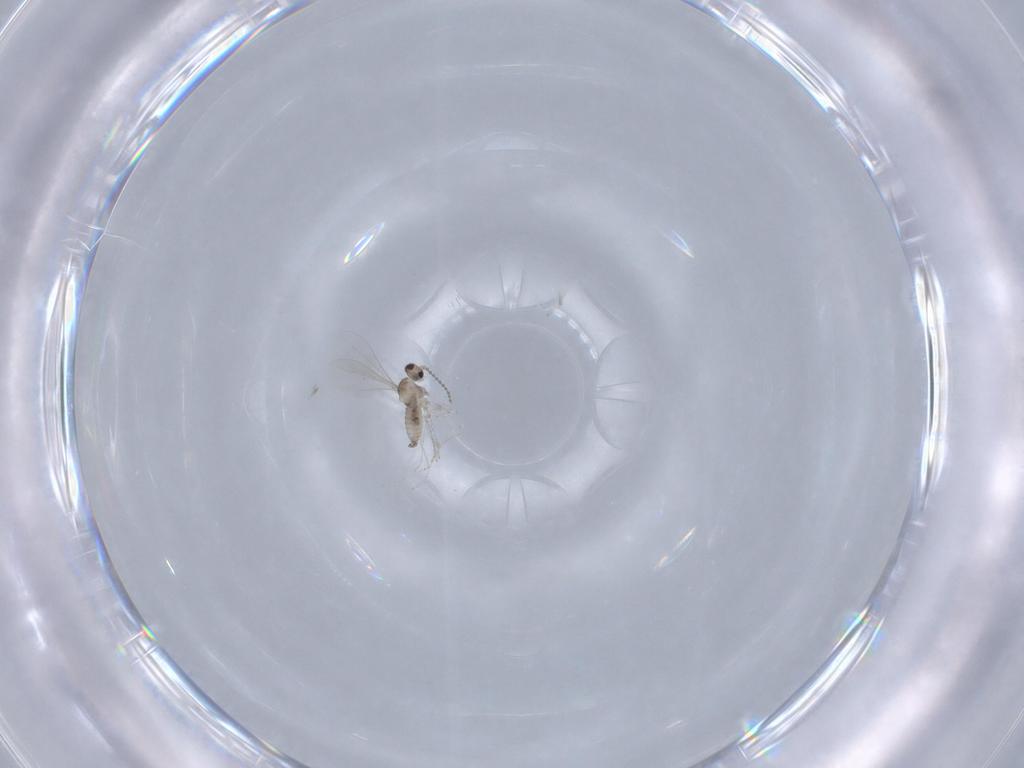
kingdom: Animalia
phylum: Arthropoda
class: Insecta
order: Diptera
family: Cecidomyiidae
